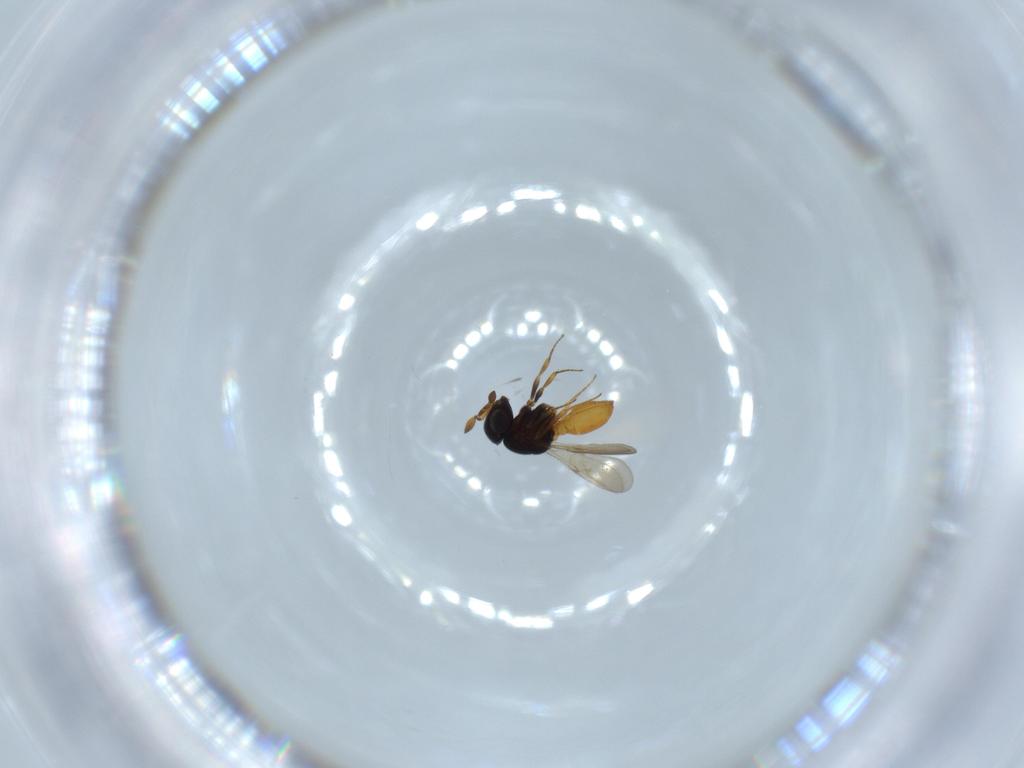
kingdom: Animalia
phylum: Arthropoda
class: Insecta
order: Hymenoptera
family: Scelionidae
